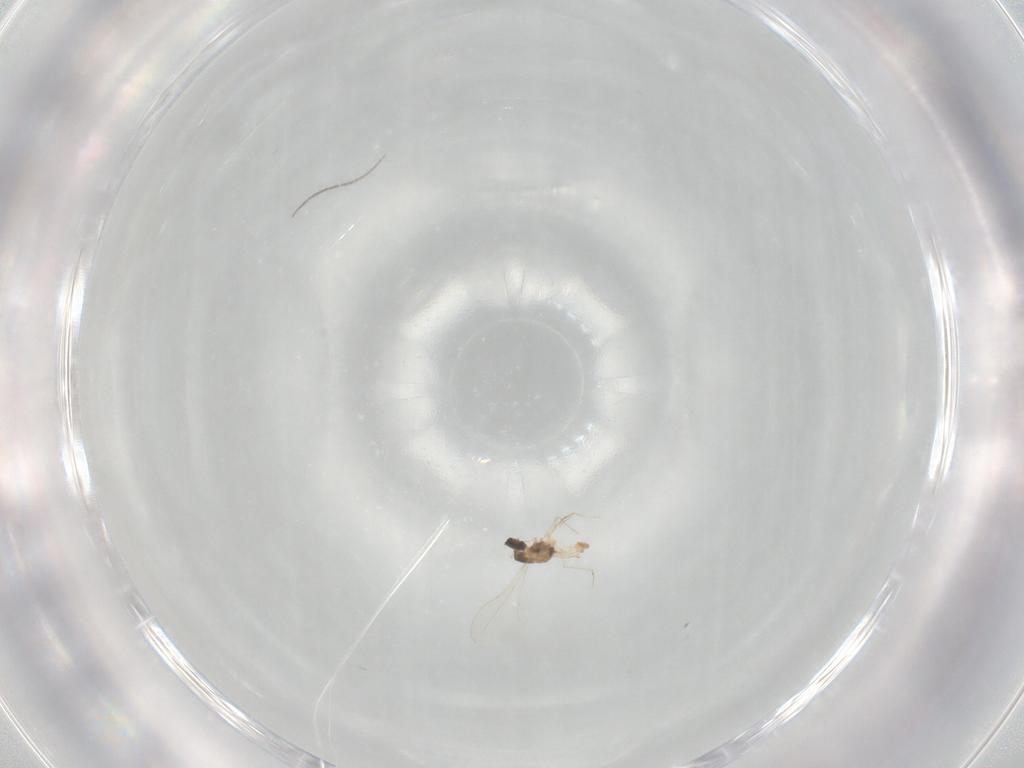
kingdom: Animalia
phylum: Arthropoda
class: Insecta
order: Diptera
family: Cecidomyiidae
